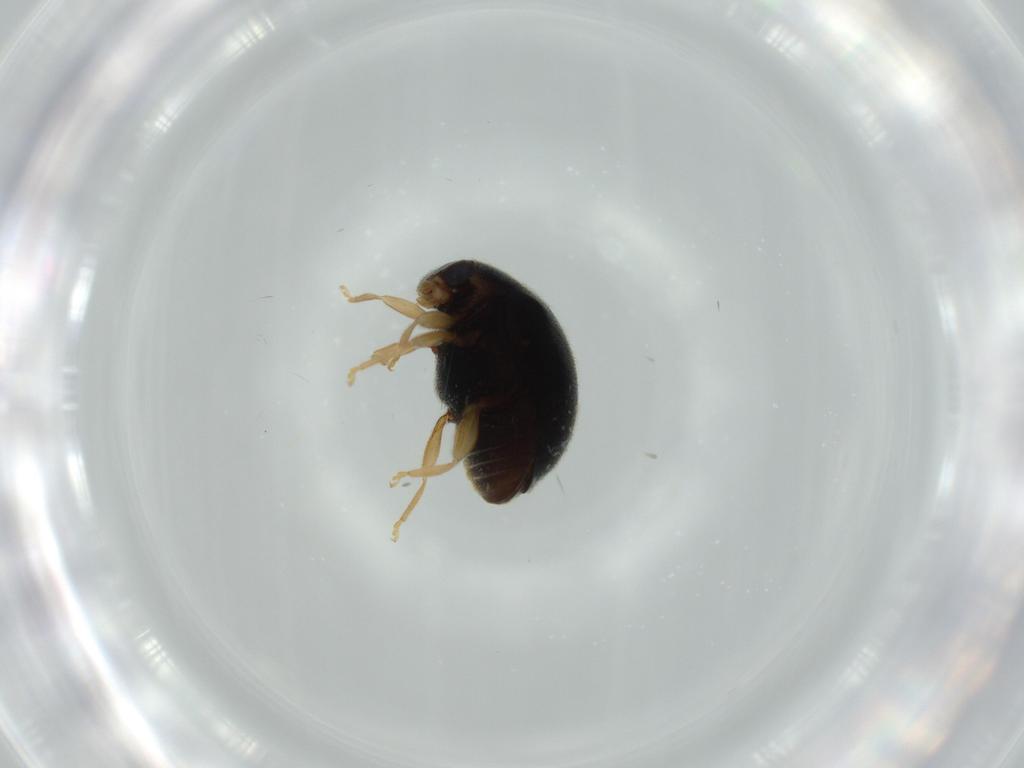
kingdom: Animalia
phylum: Arthropoda
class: Insecta
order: Coleoptera
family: Coccinellidae
